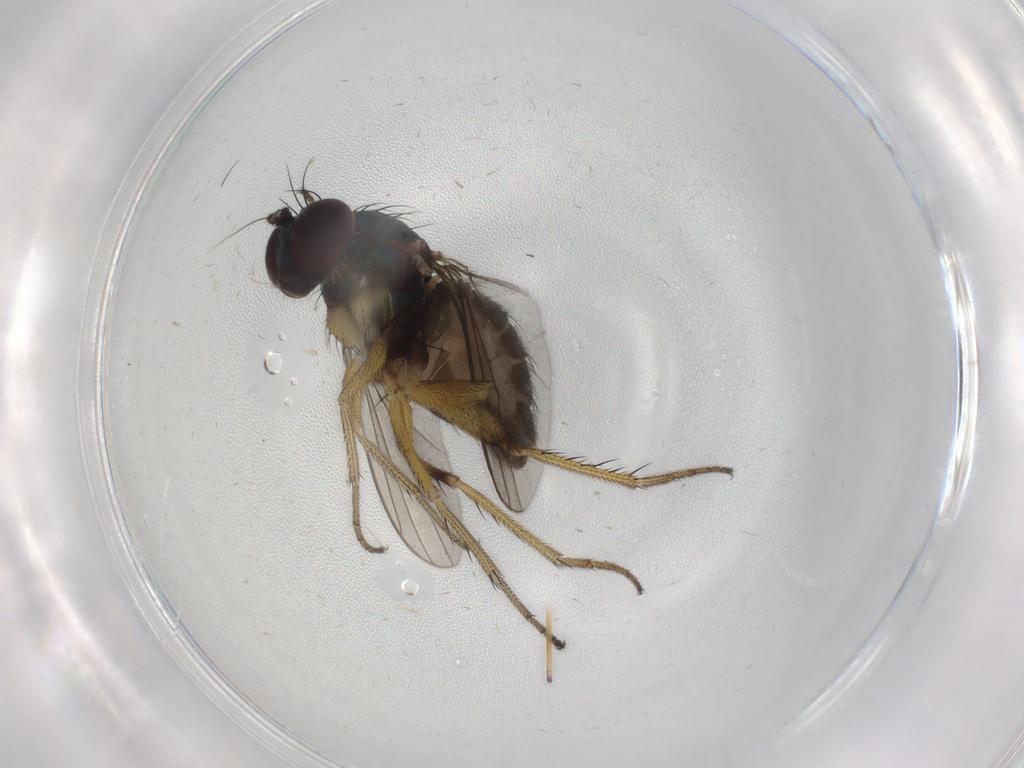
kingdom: Animalia
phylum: Arthropoda
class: Insecta
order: Diptera
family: Dolichopodidae
